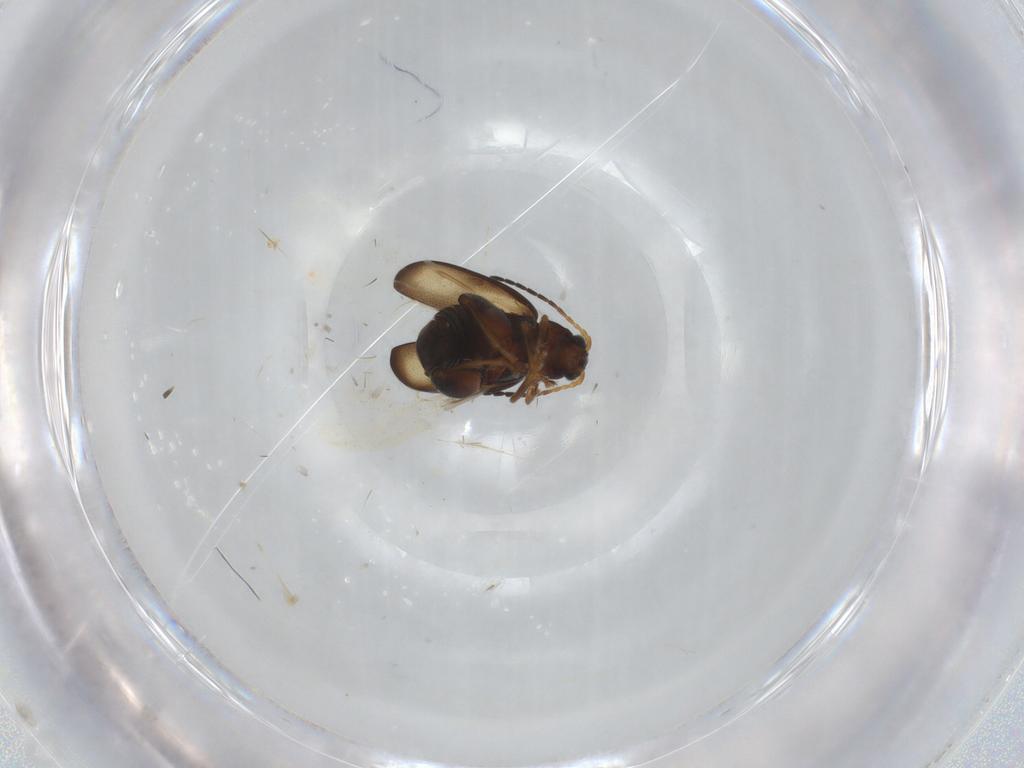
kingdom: Animalia
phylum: Arthropoda
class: Insecta
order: Coleoptera
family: Chrysomelidae
